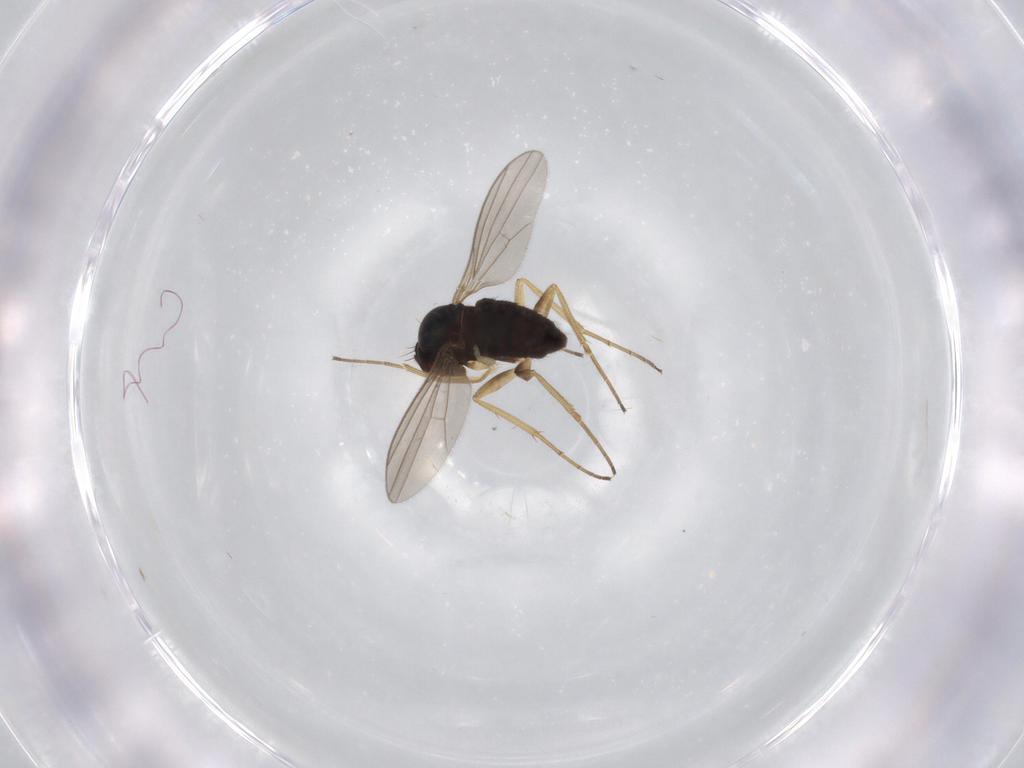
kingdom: Animalia
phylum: Arthropoda
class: Insecta
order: Diptera
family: Dolichopodidae
